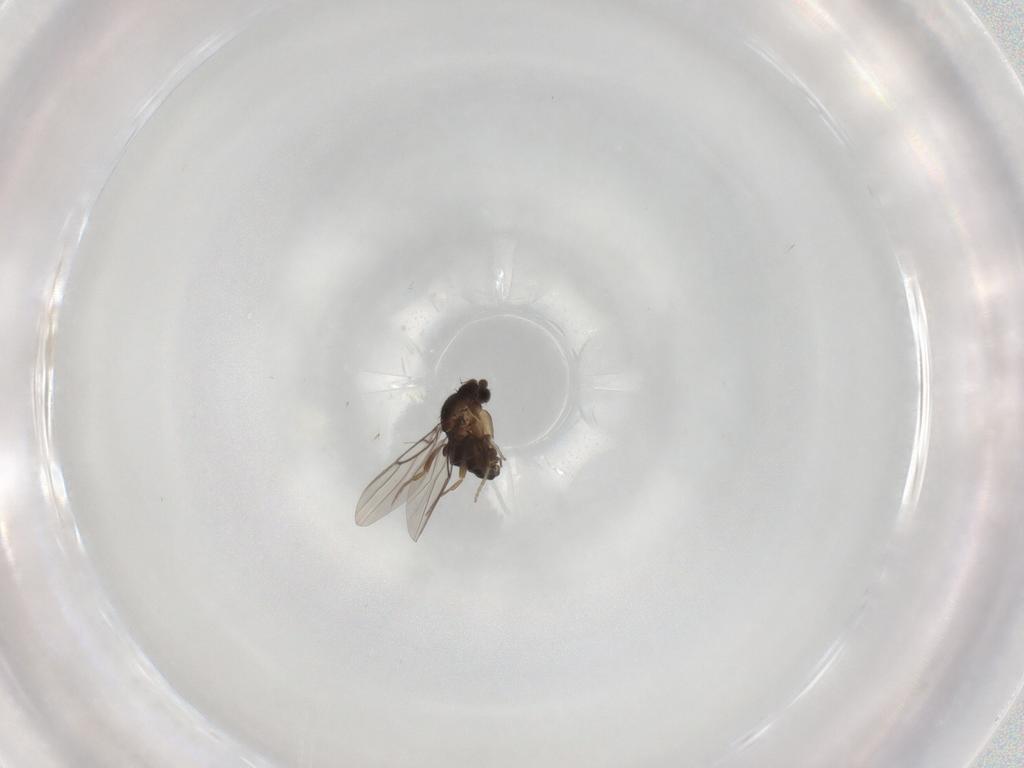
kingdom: Animalia
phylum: Arthropoda
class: Insecta
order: Diptera
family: Phoridae
